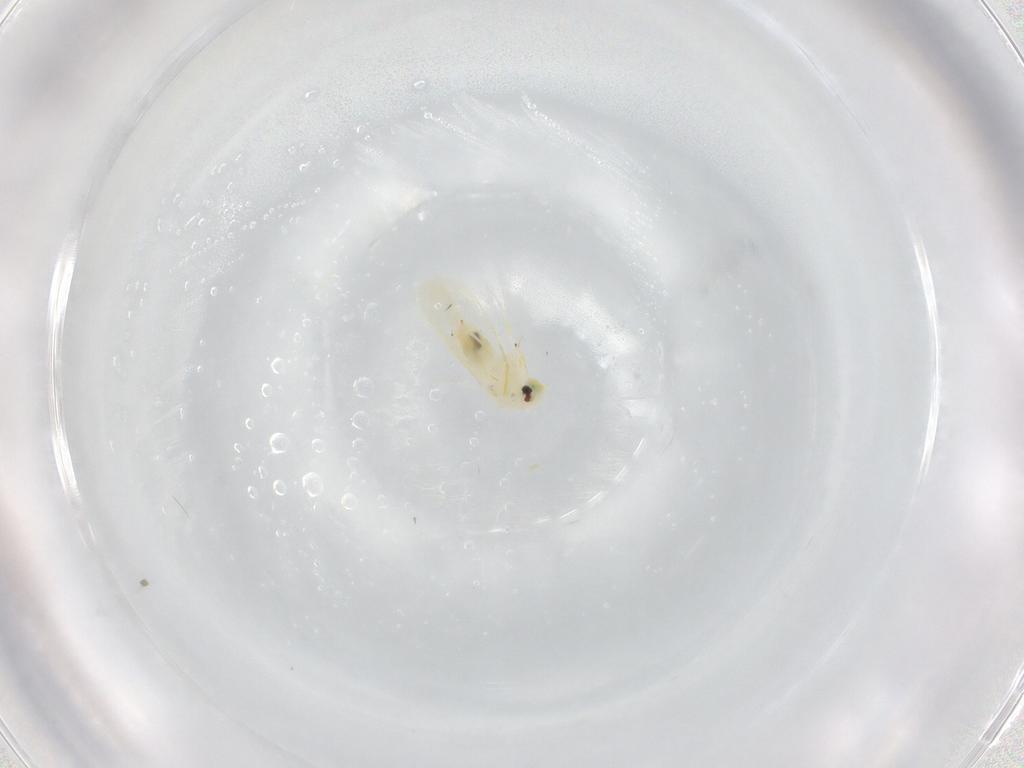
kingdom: Animalia
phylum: Arthropoda
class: Insecta
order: Hemiptera
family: Aleyrodidae
